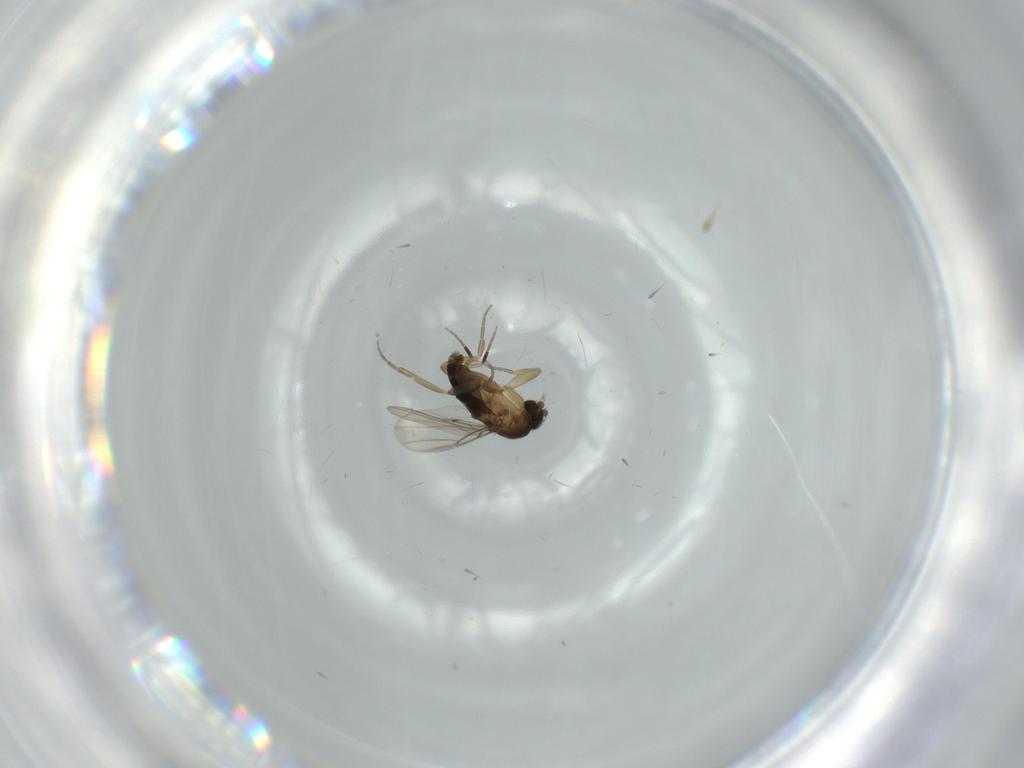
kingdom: Animalia
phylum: Arthropoda
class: Insecta
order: Diptera
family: Phoridae
